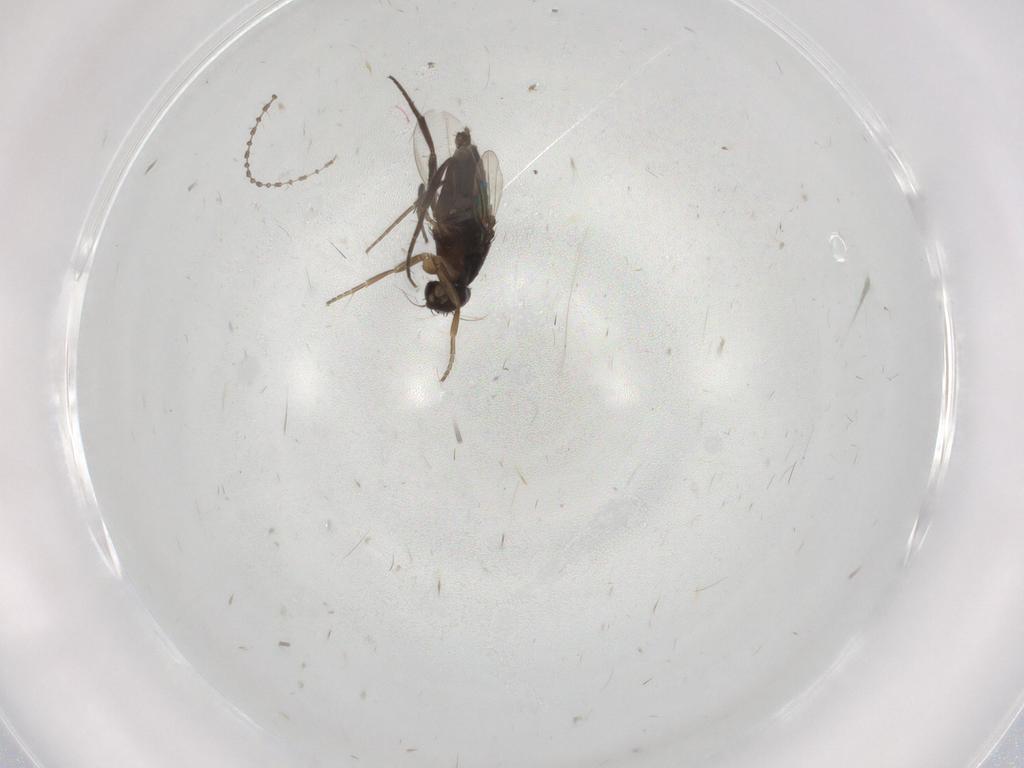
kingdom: Animalia
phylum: Arthropoda
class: Insecta
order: Diptera
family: Phoridae
